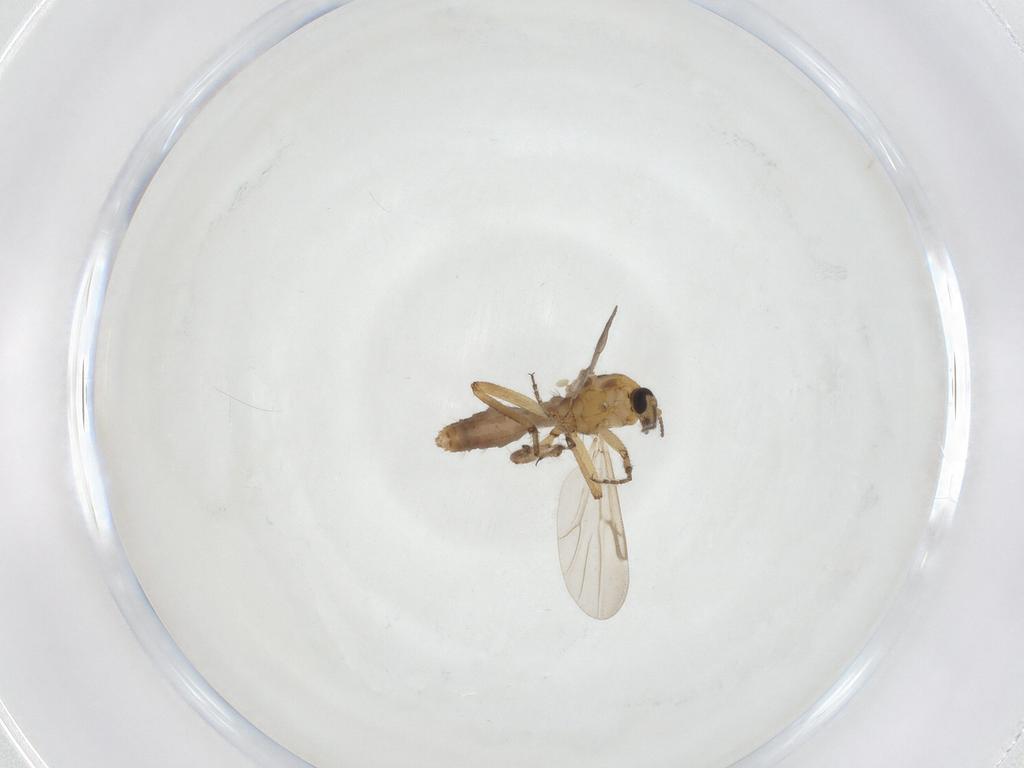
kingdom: Animalia
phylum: Arthropoda
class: Insecta
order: Diptera
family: Ceratopogonidae
